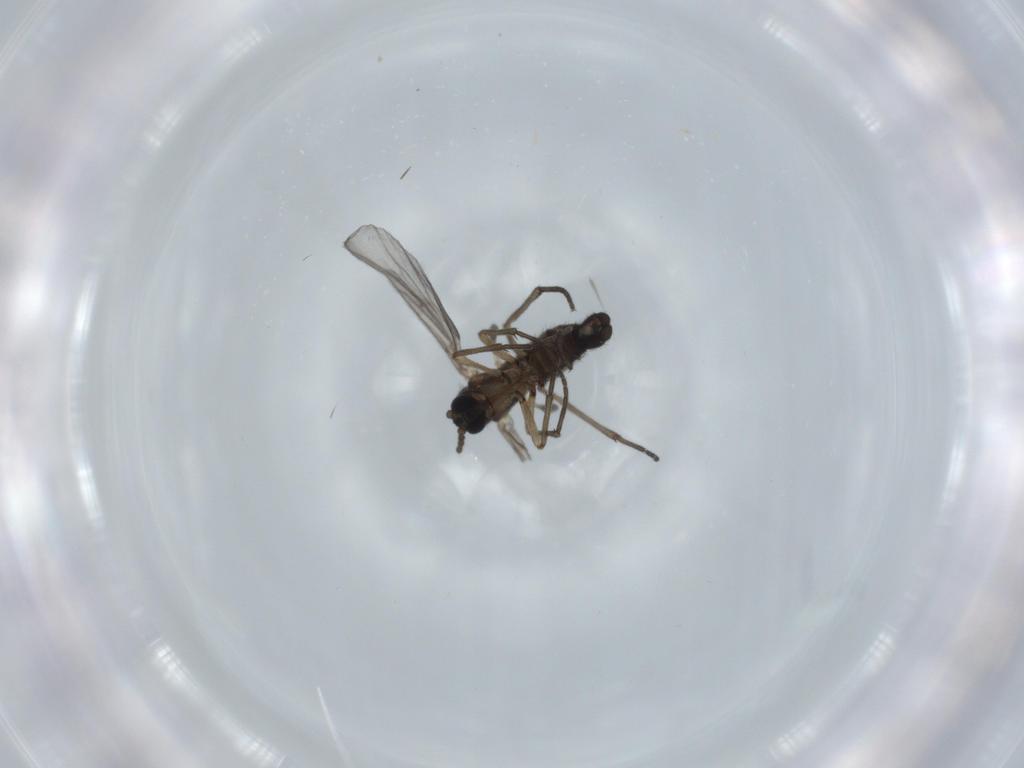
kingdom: Animalia
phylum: Arthropoda
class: Insecta
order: Diptera
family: Sciaridae
